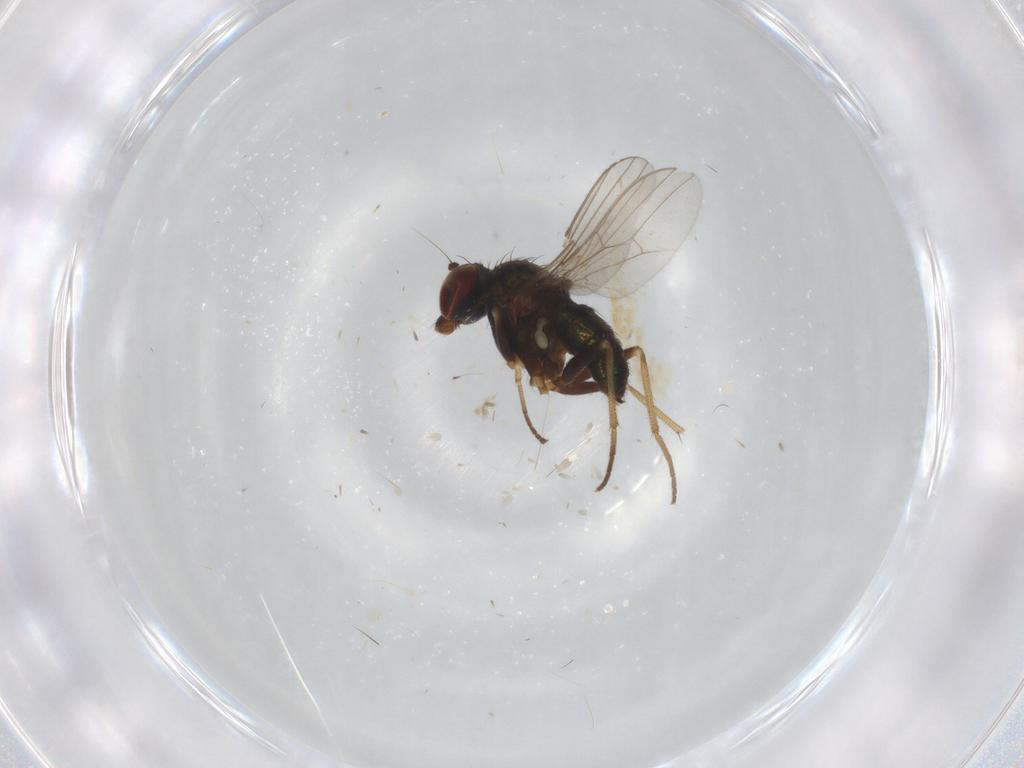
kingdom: Animalia
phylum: Arthropoda
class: Insecta
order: Diptera
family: Cecidomyiidae
